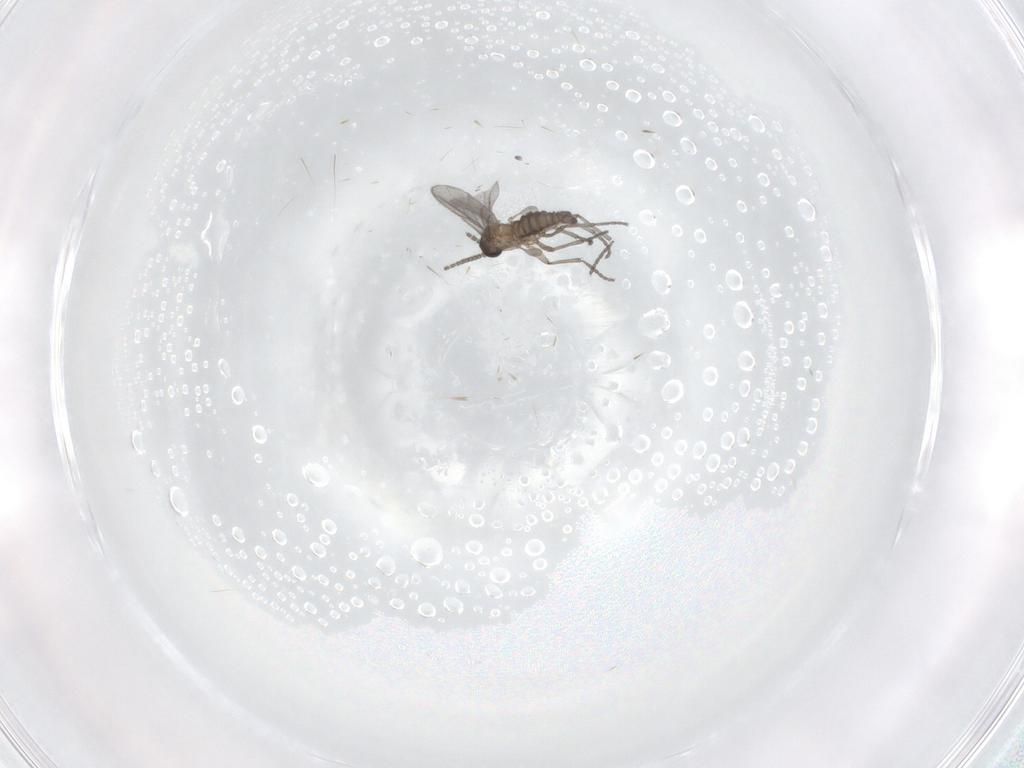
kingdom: Animalia
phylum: Arthropoda
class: Insecta
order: Diptera
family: Sciaridae
